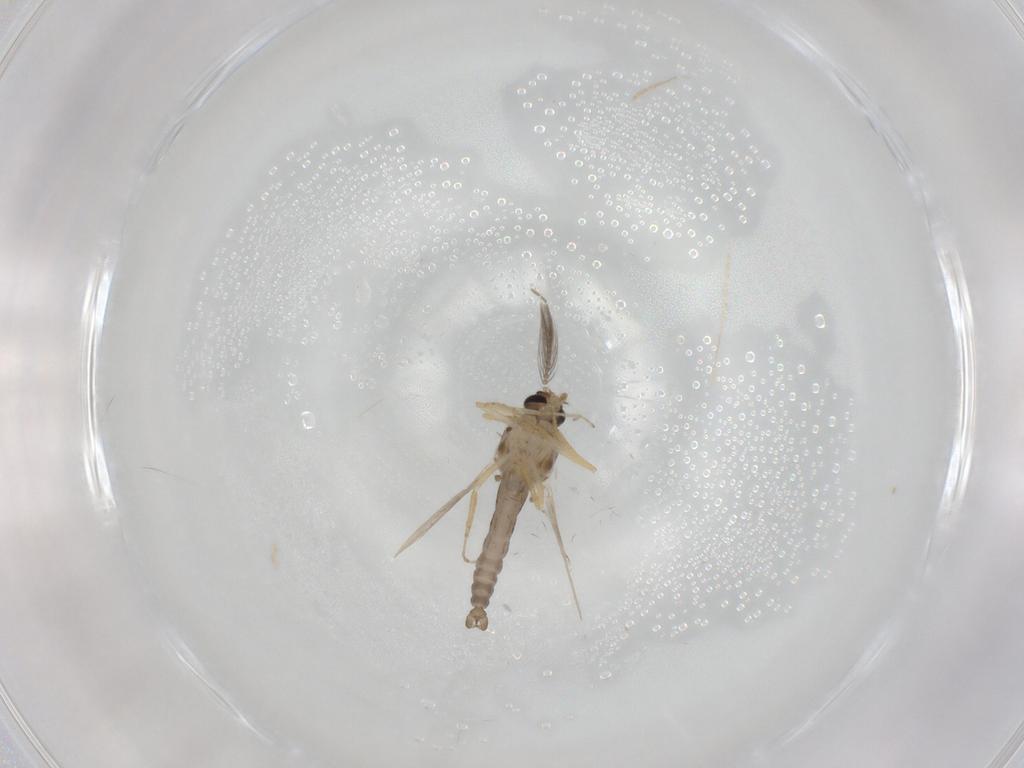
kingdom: Animalia
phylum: Arthropoda
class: Insecta
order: Diptera
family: Ceratopogonidae
